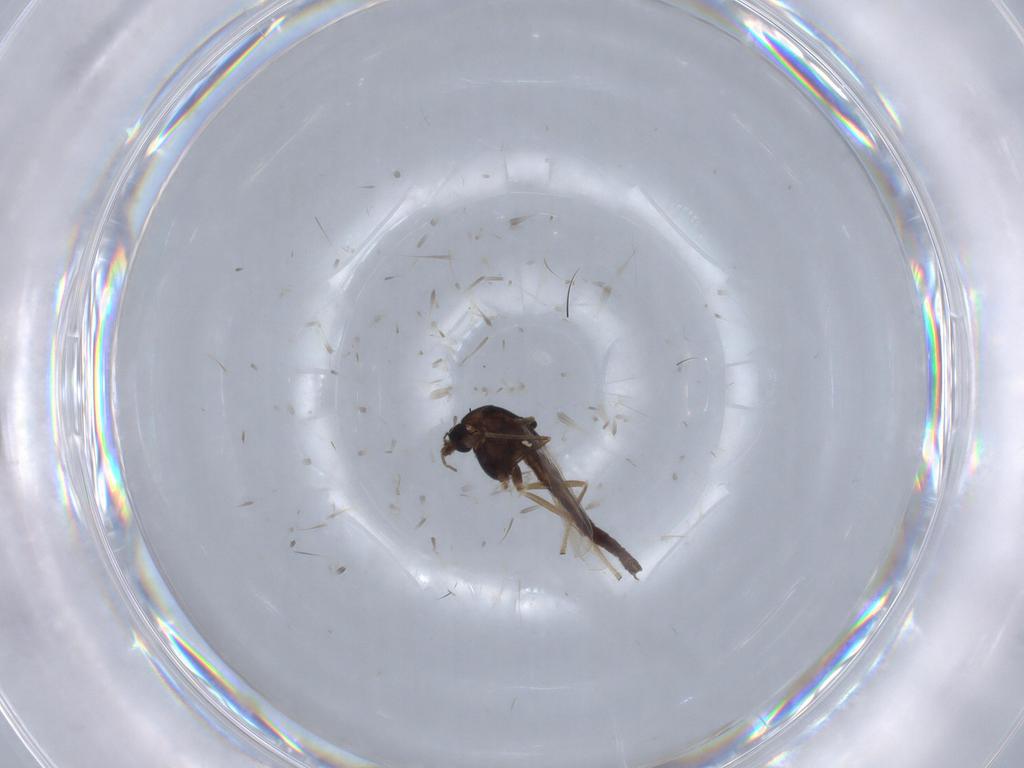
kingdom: Animalia
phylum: Arthropoda
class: Insecta
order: Diptera
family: Chironomidae
